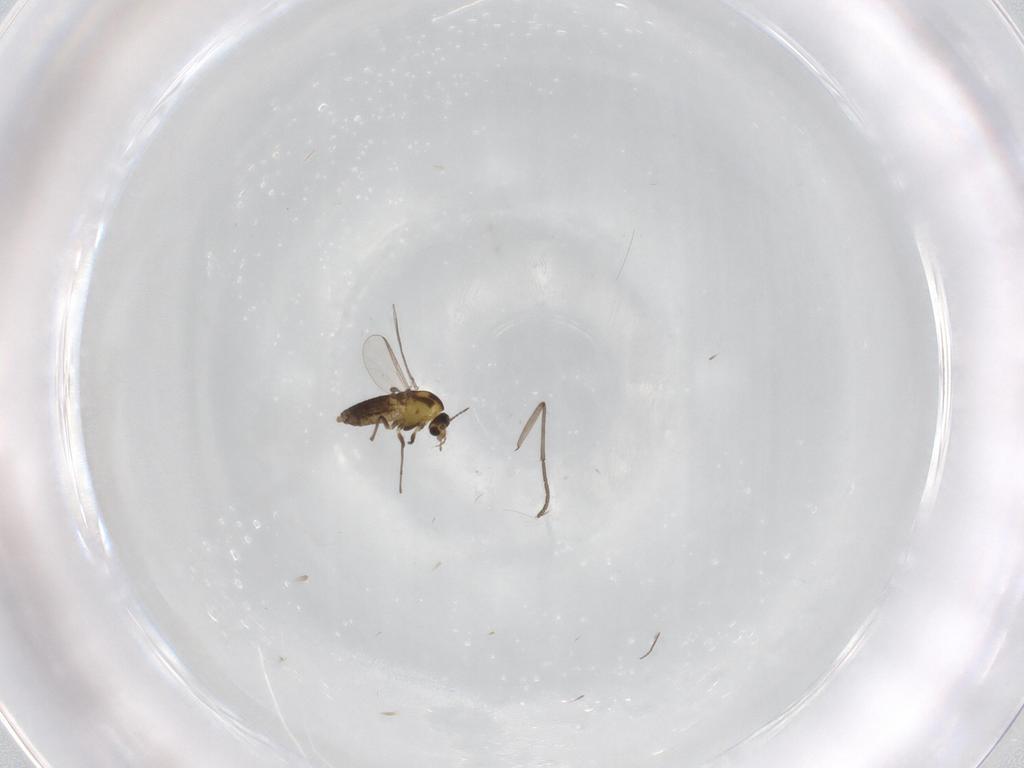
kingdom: Animalia
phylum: Arthropoda
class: Insecta
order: Diptera
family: Chironomidae
